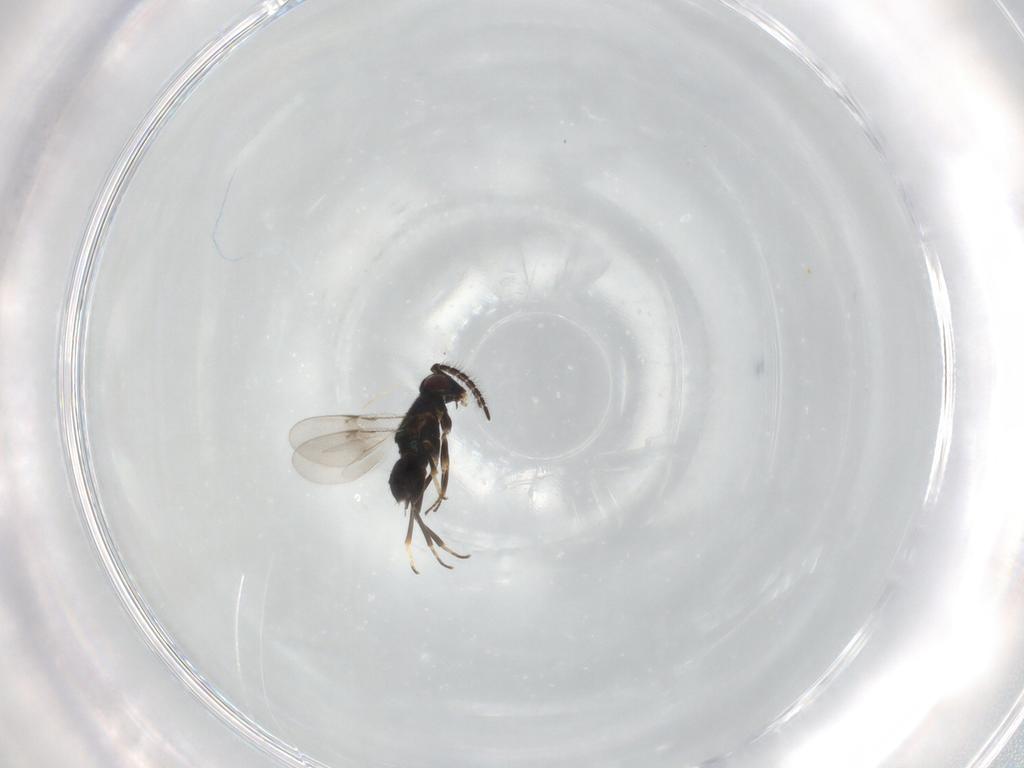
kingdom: Animalia
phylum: Arthropoda
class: Insecta
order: Hymenoptera
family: Encyrtidae
